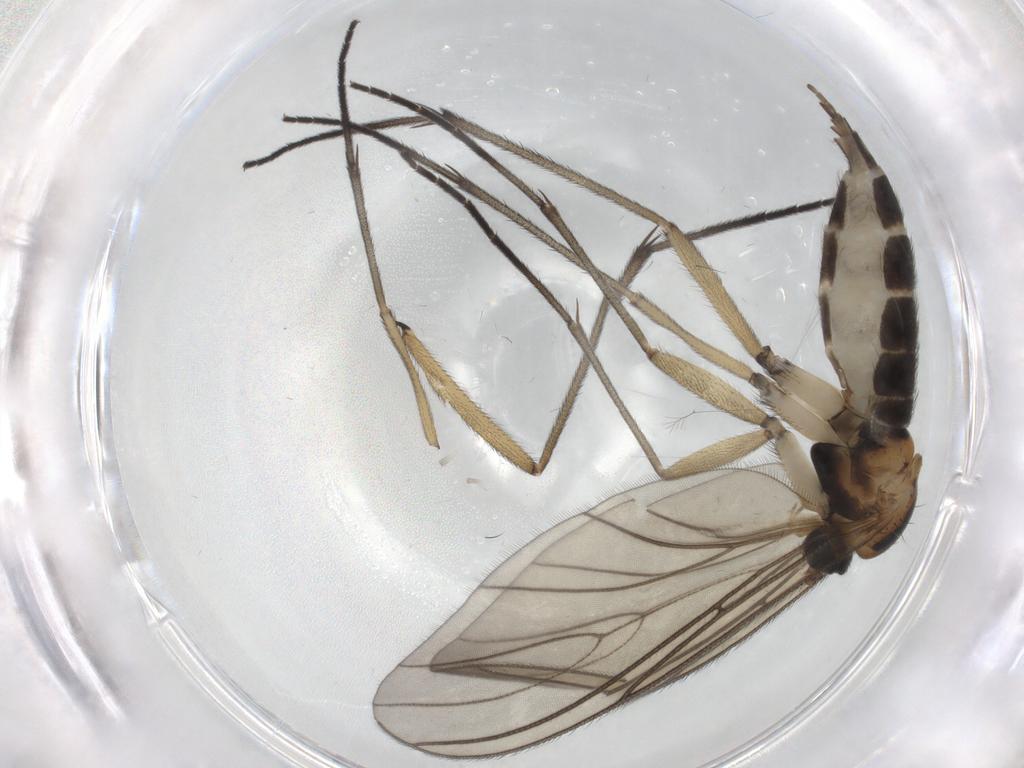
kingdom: Animalia
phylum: Arthropoda
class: Insecta
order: Diptera
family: Sciaridae
